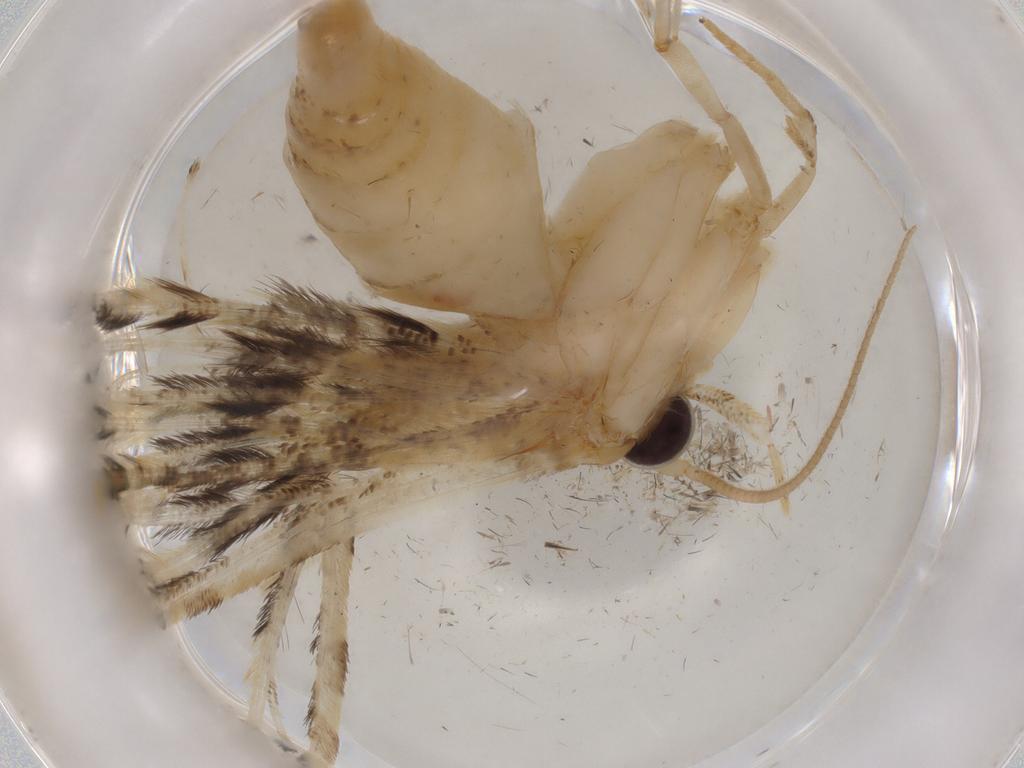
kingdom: Animalia
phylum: Arthropoda
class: Insecta
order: Lepidoptera
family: Gelechiidae
